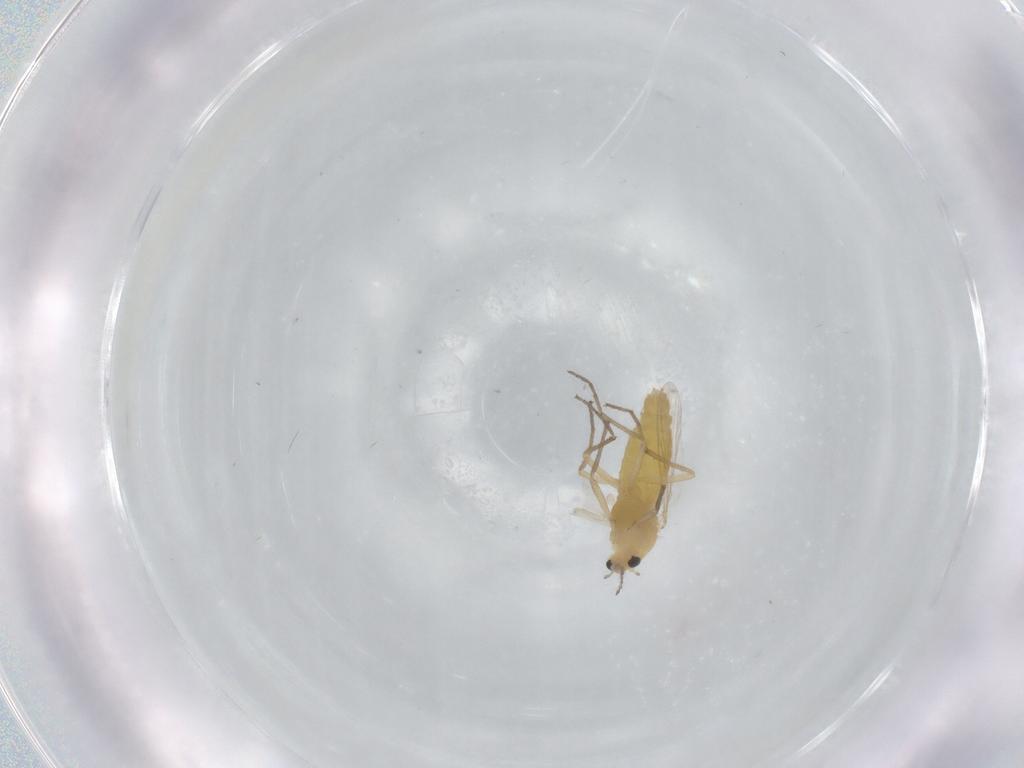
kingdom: Animalia
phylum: Arthropoda
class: Insecta
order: Diptera
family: Chironomidae
